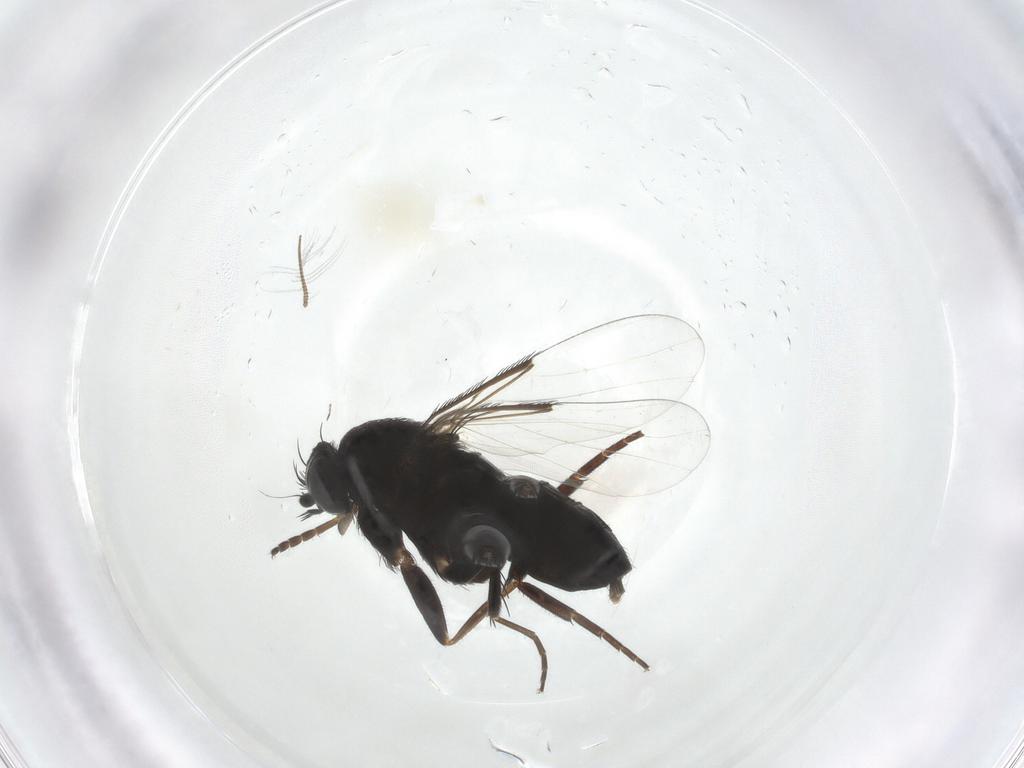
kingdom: Animalia
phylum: Arthropoda
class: Insecta
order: Diptera
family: Phoridae
